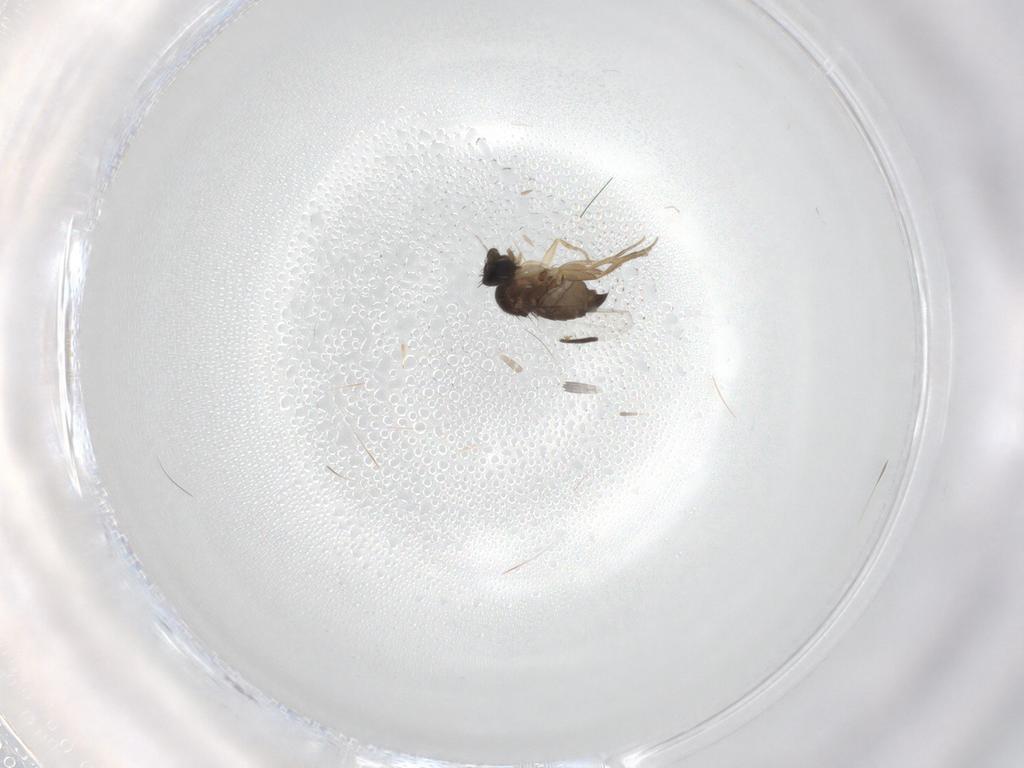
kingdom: Animalia
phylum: Arthropoda
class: Insecta
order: Diptera
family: Phoridae
